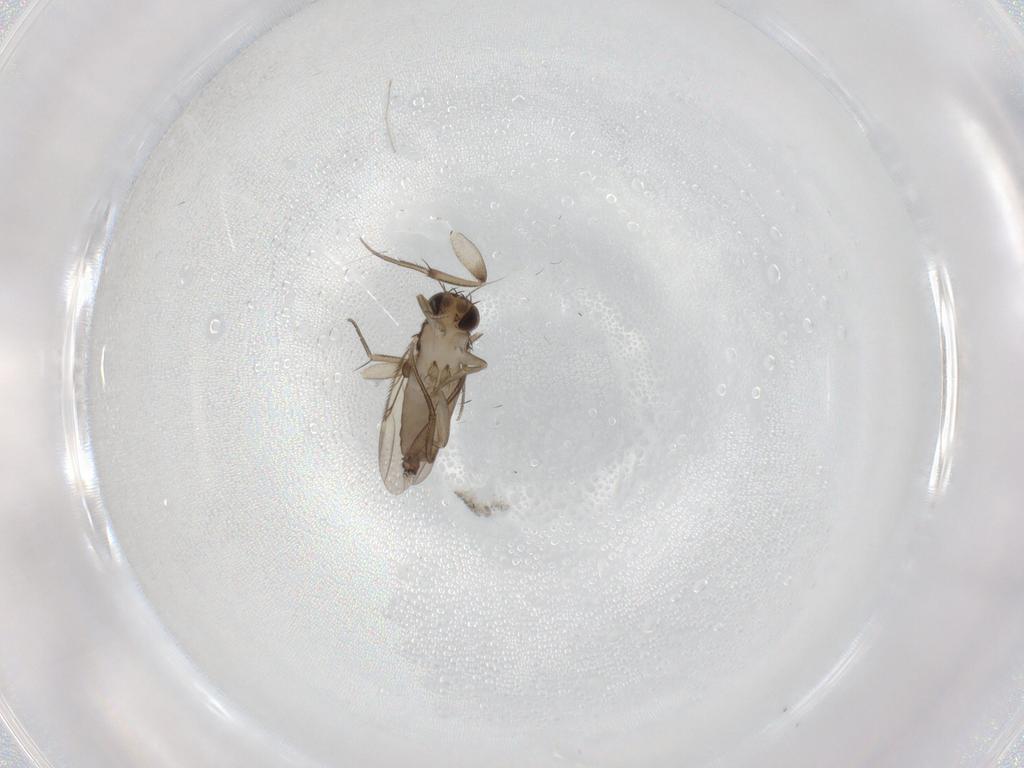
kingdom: Animalia
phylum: Arthropoda
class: Insecta
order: Diptera
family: Phoridae
